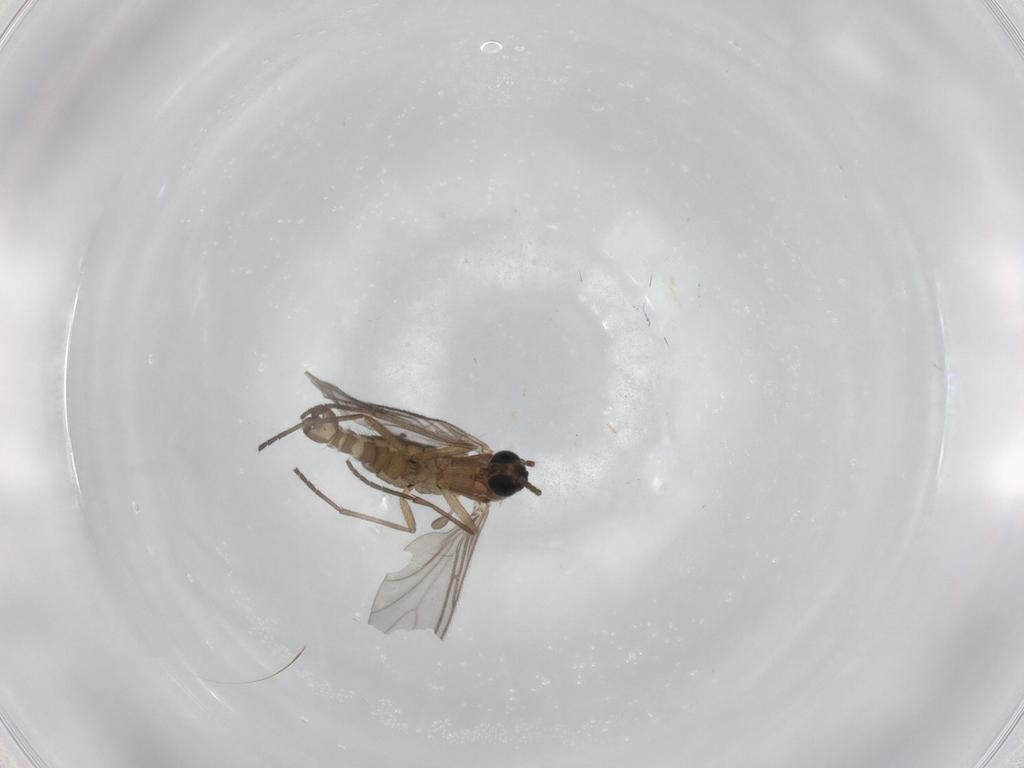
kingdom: Animalia
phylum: Arthropoda
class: Insecta
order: Diptera
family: Sciaridae
